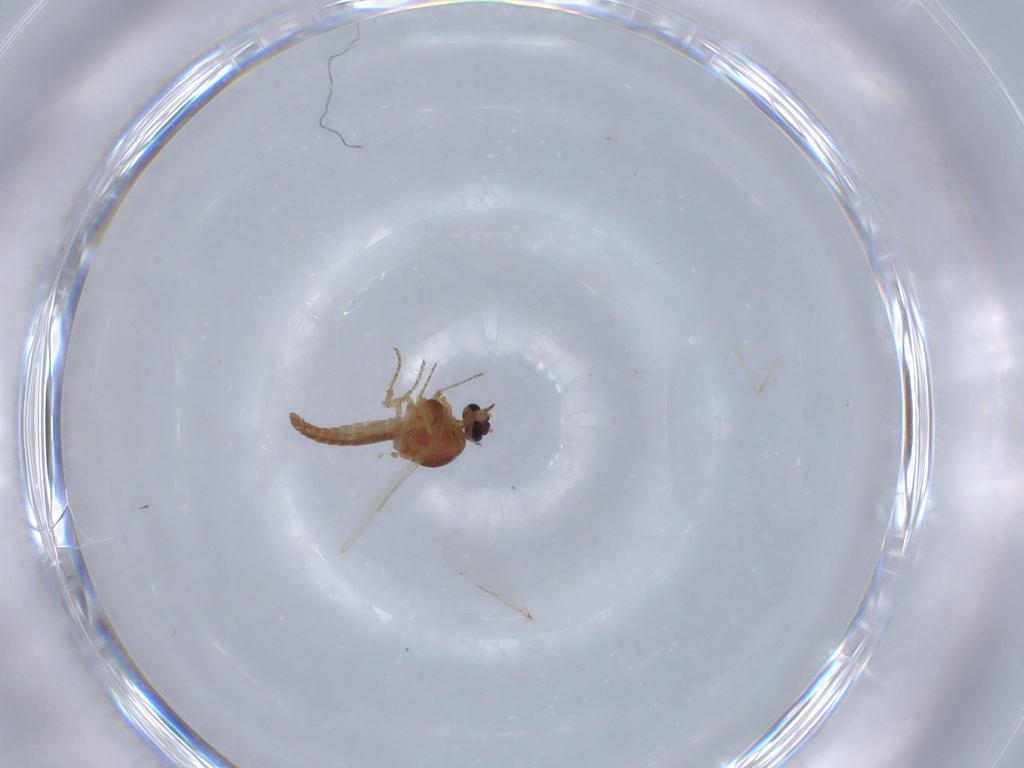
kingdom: Animalia
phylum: Arthropoda
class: Insecta
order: Diptera
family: Ceratopogonidae
